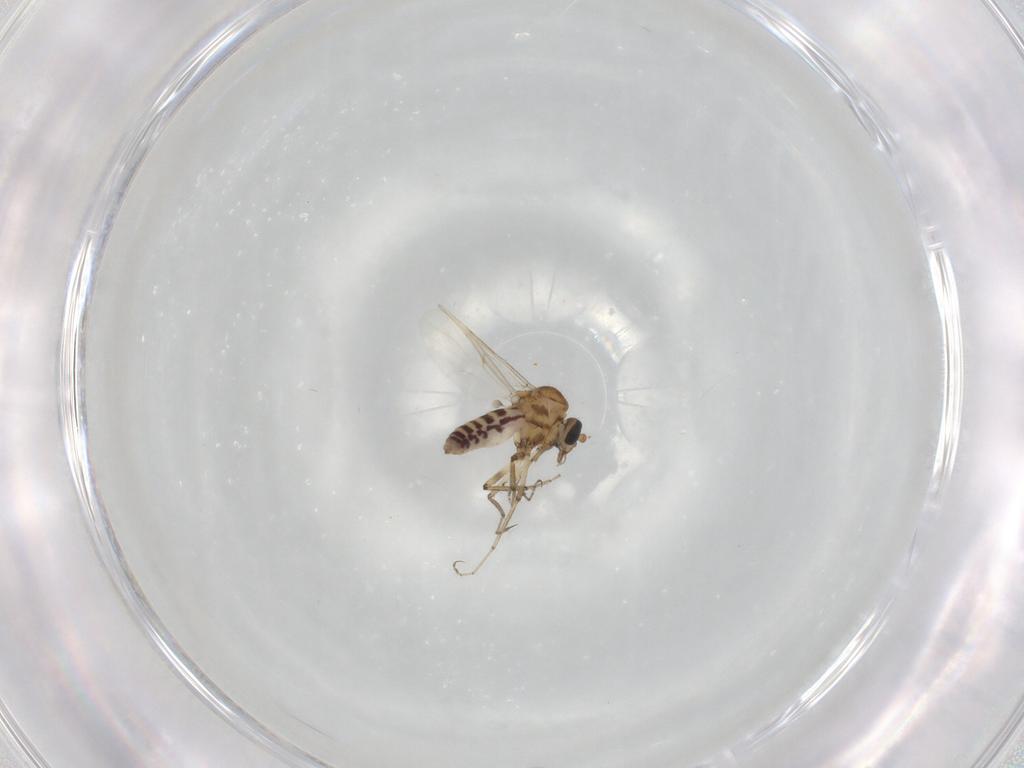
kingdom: Animalia
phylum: Arthropoda
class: Insecta
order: Diptera
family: Ceratopogonidae
